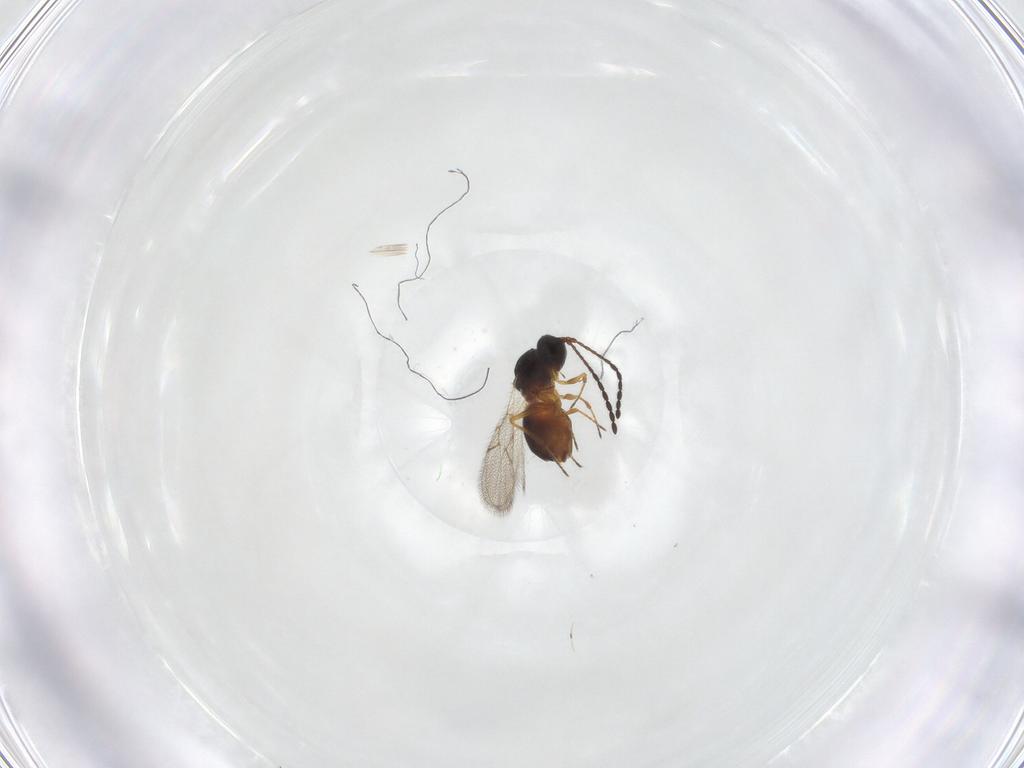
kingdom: Animalia
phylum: Arthropoda
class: Insecta
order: Hymenoptera
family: Figitidae
